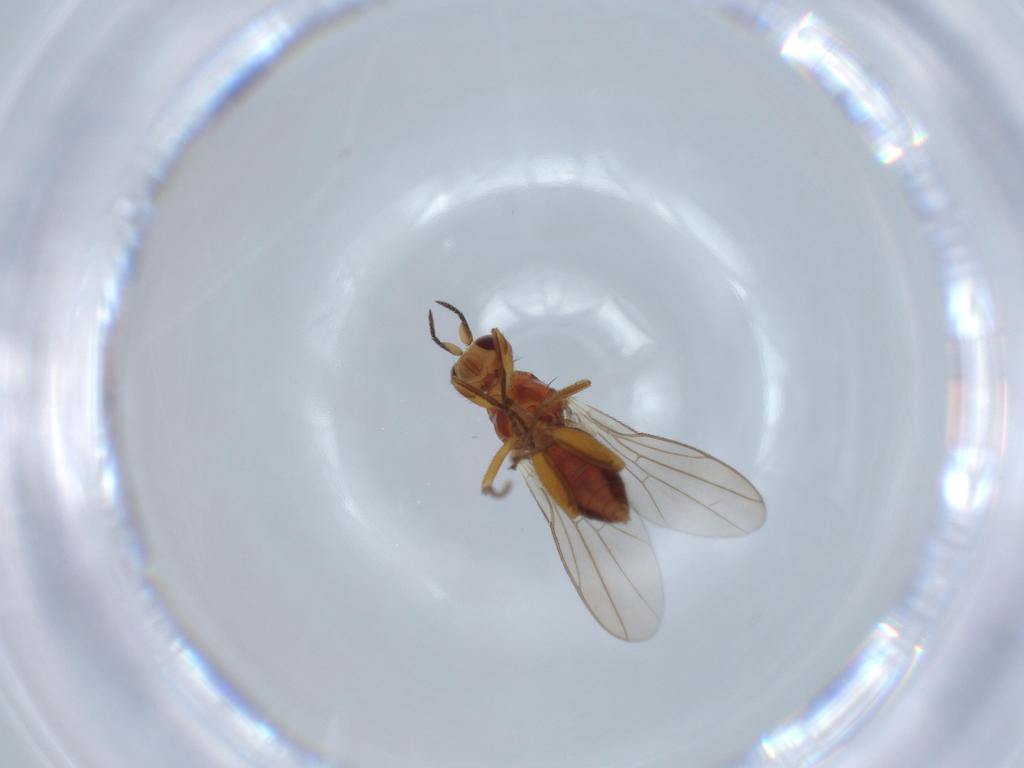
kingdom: Animalia
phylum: Arthropoda
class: Insecta
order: Diptera
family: Chloropidae
